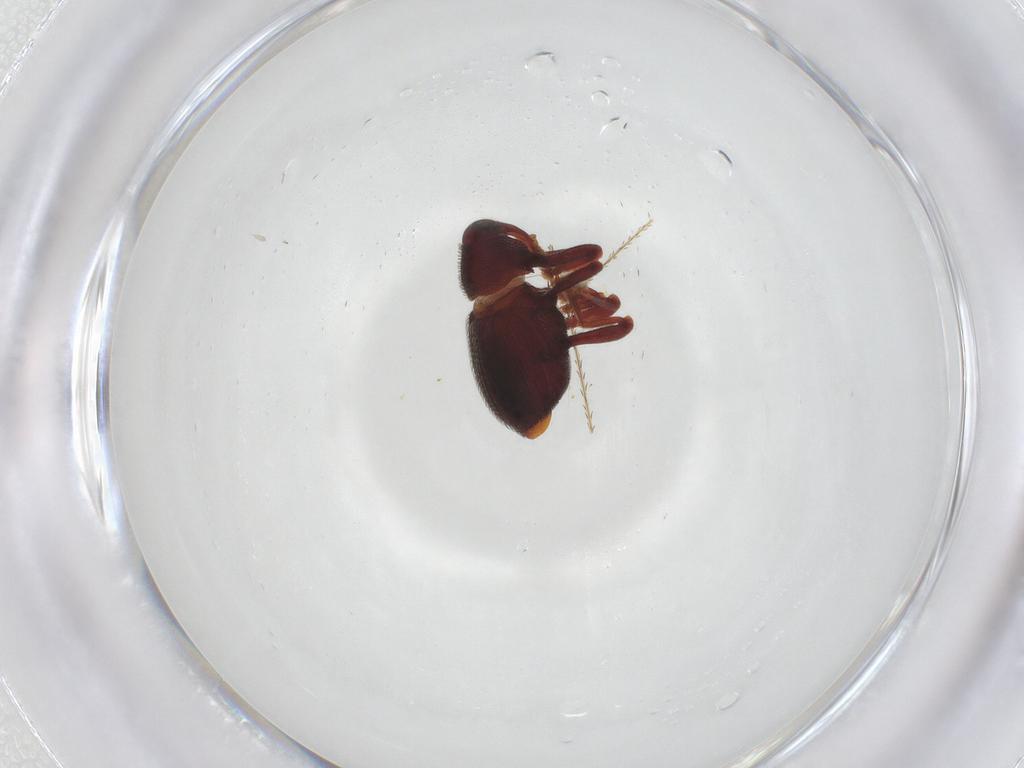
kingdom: Animalia
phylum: Arthropoda
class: Insecta
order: Coleoptera
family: Curculionidae
